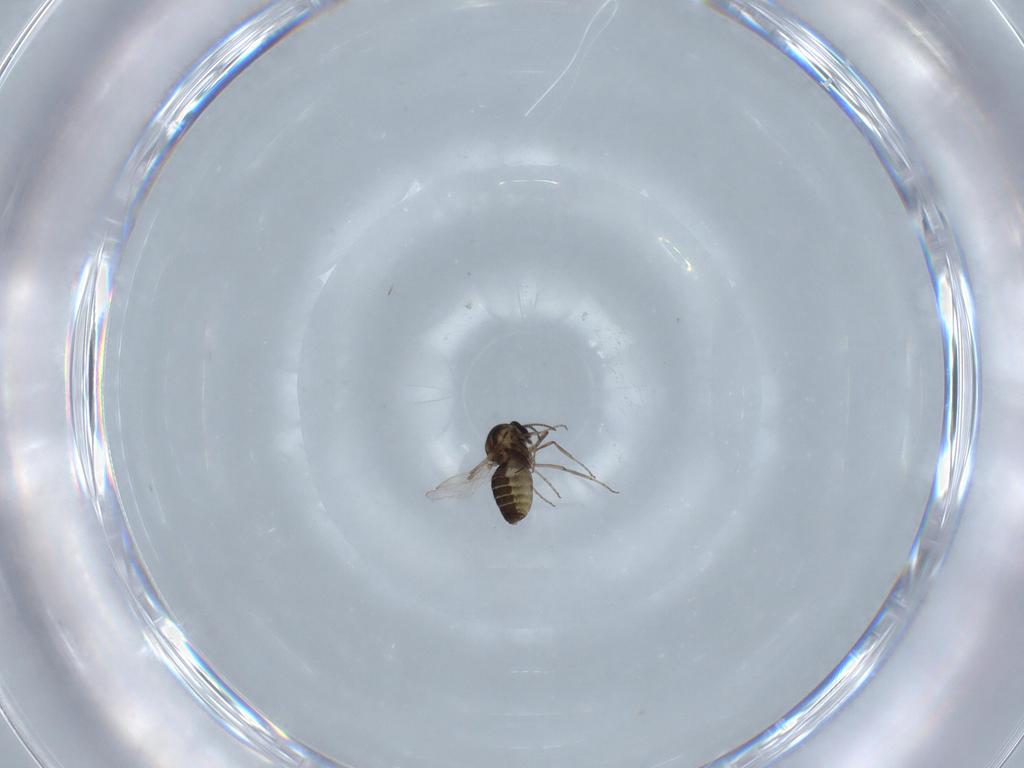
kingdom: Animalia
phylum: Arthropoda
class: Insecta
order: Diptera
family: Ceratopogonidae
